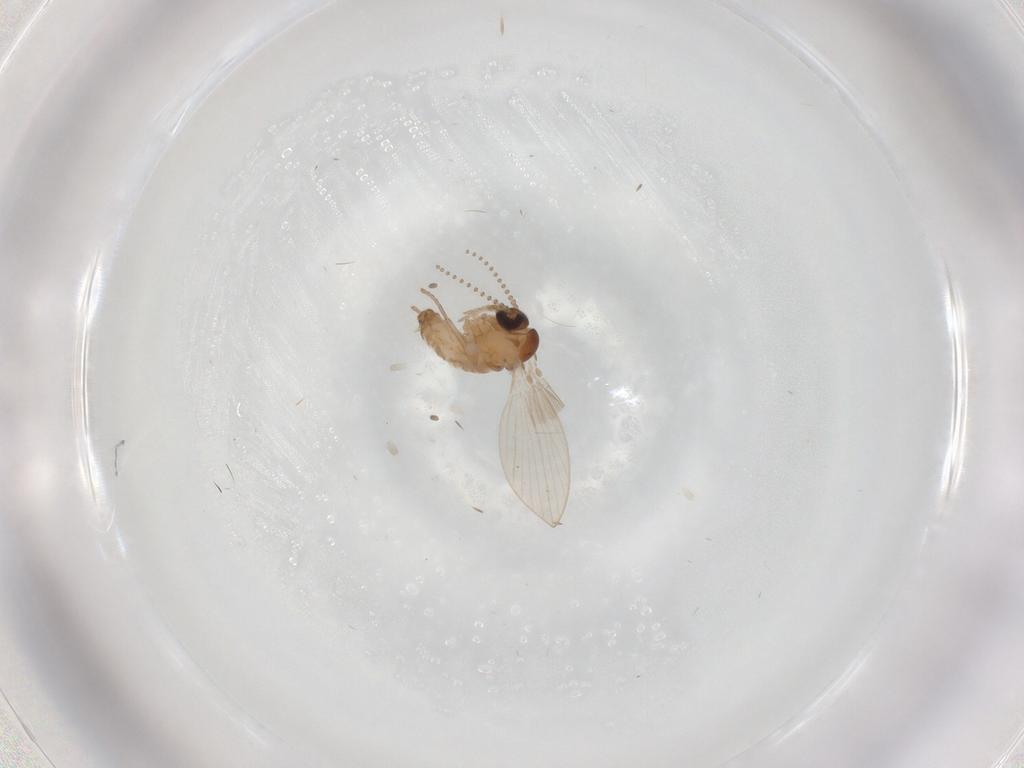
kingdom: Animalia
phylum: Arthropoda
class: Insecta
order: Diptera
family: Psychodidae
